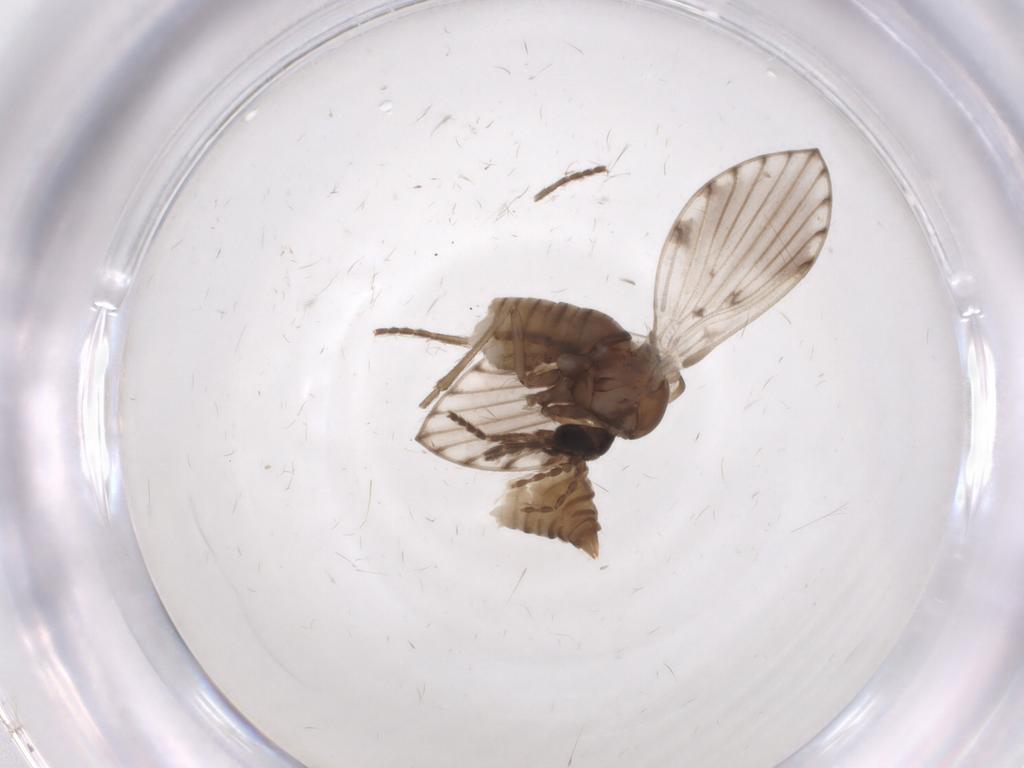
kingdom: Animalia
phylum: Arthropoda
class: Insecta
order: Diptera
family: Psychodidae
